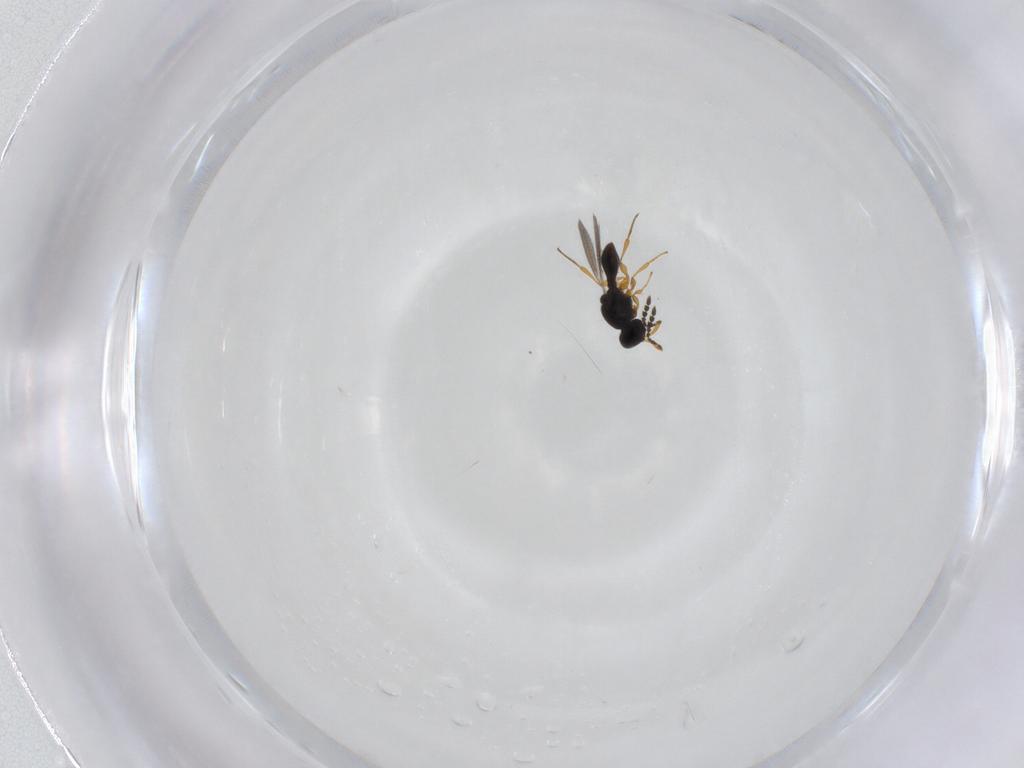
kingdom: Animalia
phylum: Arthropoda
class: Insecta
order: Hymenoptera
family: Platygastridae
